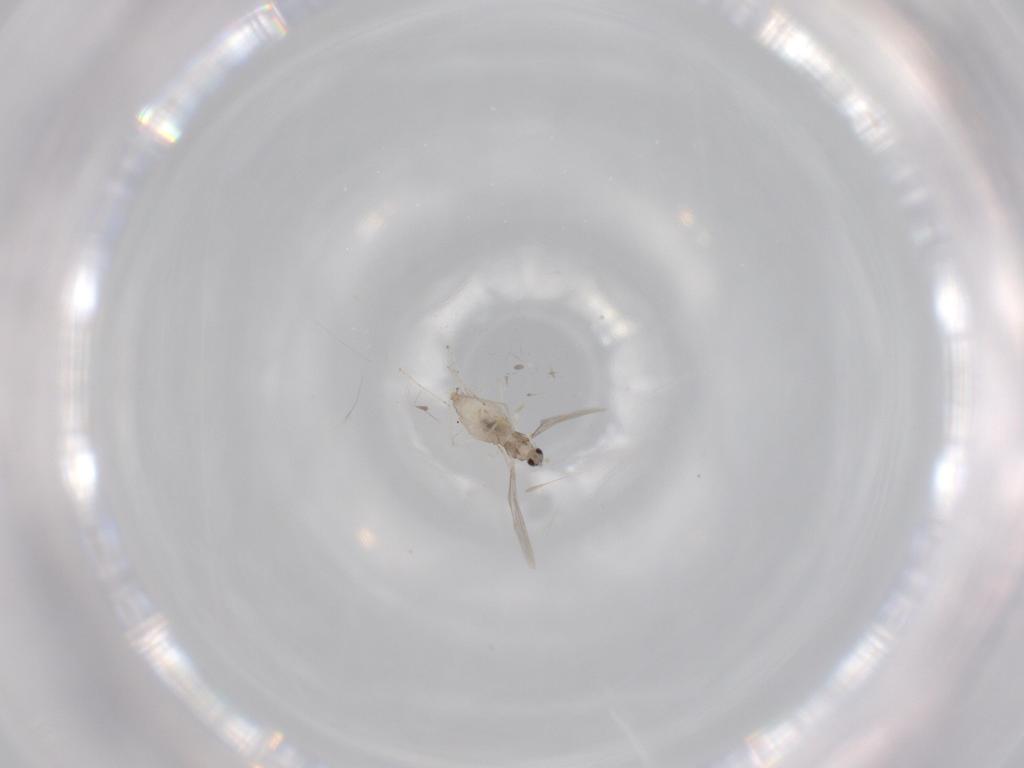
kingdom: Animalia
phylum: Arthropoda
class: Insecta
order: Diptera
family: Cecidomyiidae
